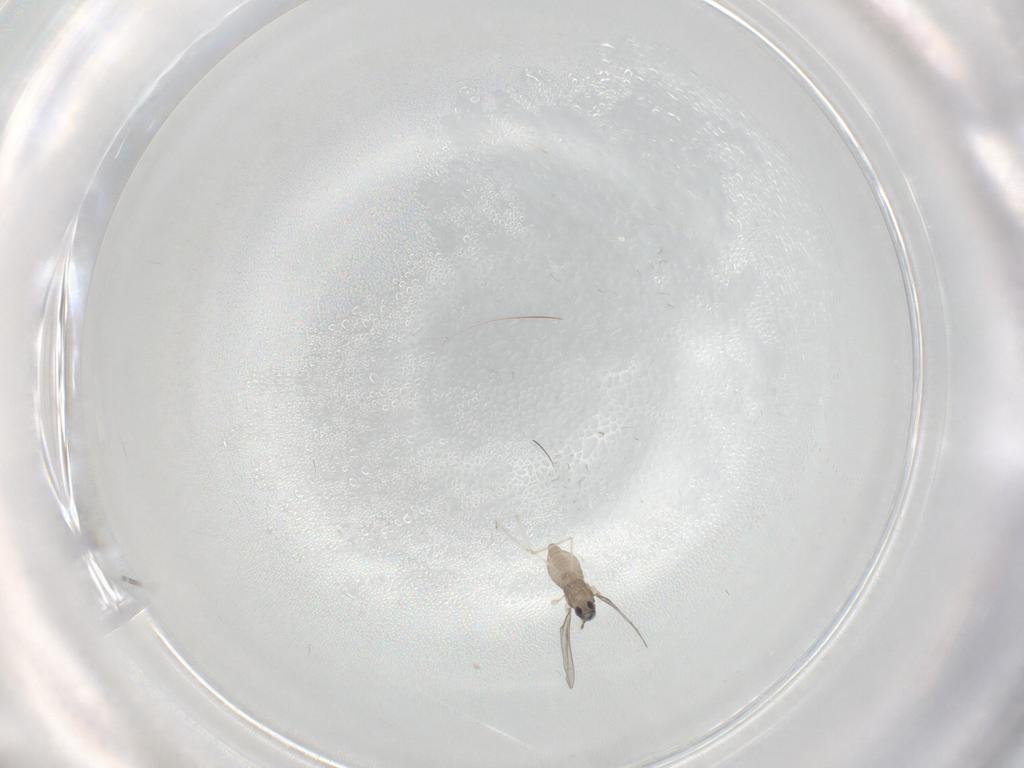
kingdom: Animalia
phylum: Arthropoda
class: Insecta
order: Diptera
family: Cecidomyiidae
